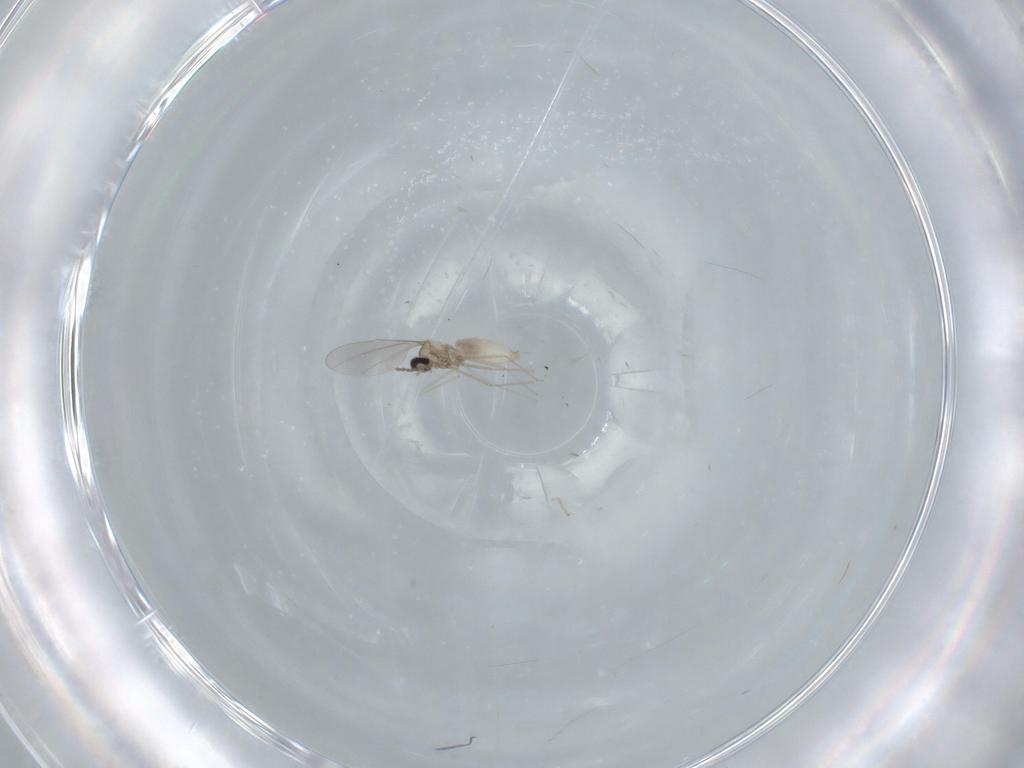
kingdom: Animalia
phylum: Arthropoda
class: Insecta
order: Diptera
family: Cecidomyiidae
